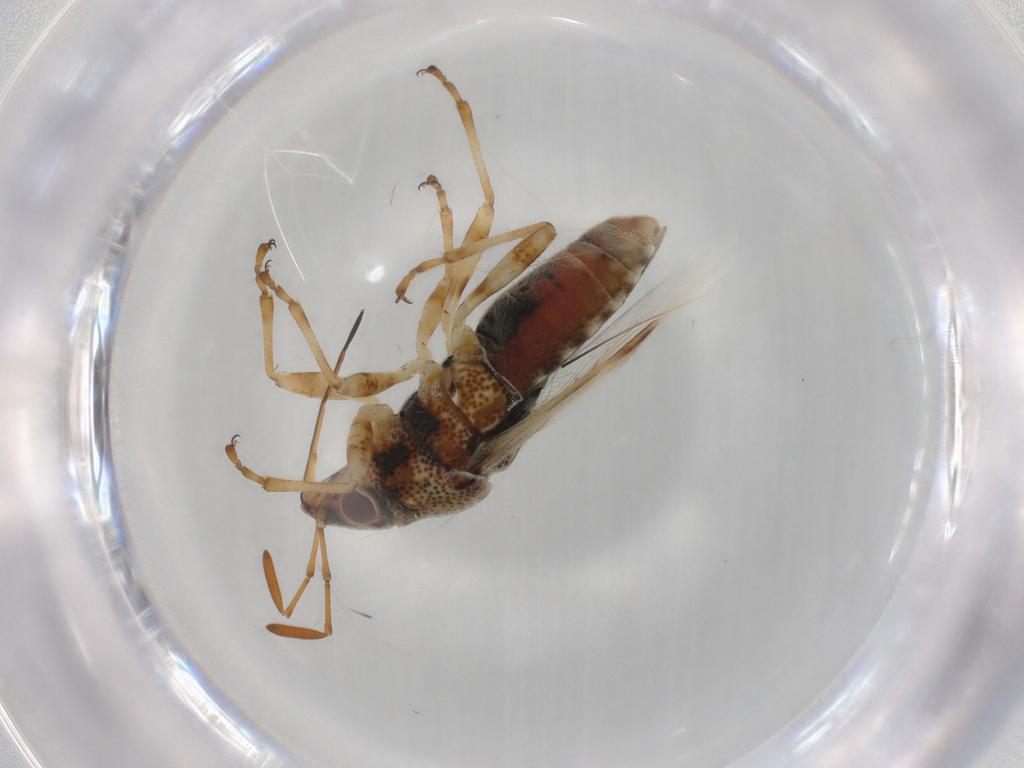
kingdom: Animalia
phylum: Arthropoda
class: Insecta
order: Hemiptera
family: Lygaeidae
